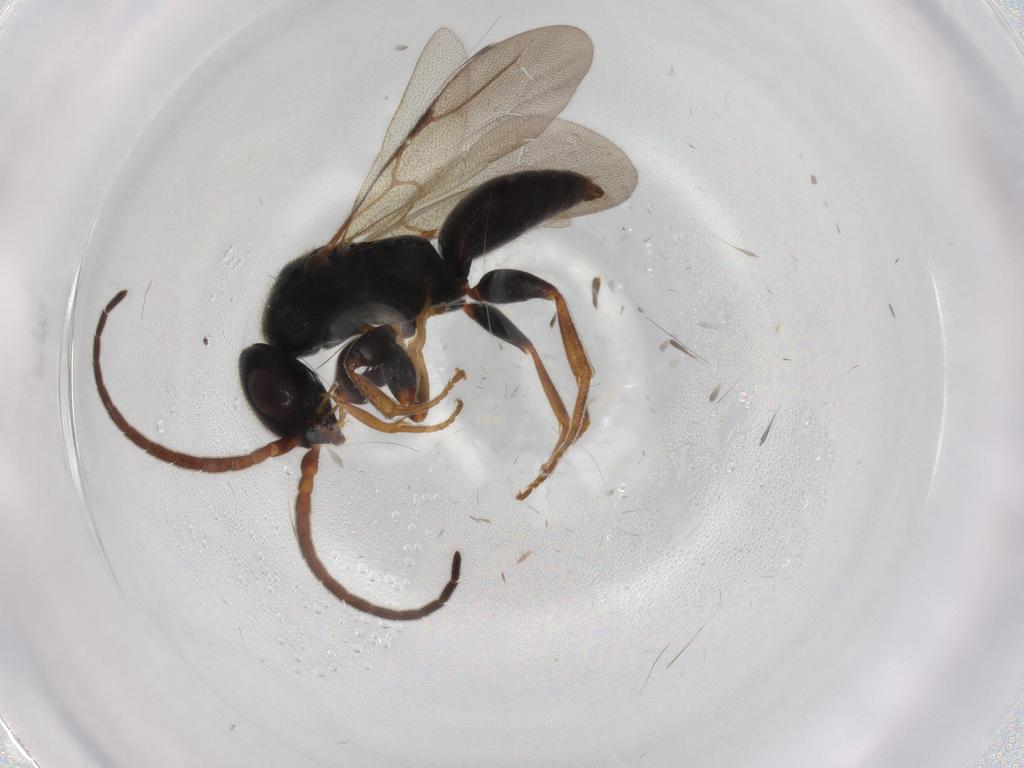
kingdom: Animalia
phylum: Arthropoda
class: Insecta
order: Hymenoptera
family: Bethylidae
